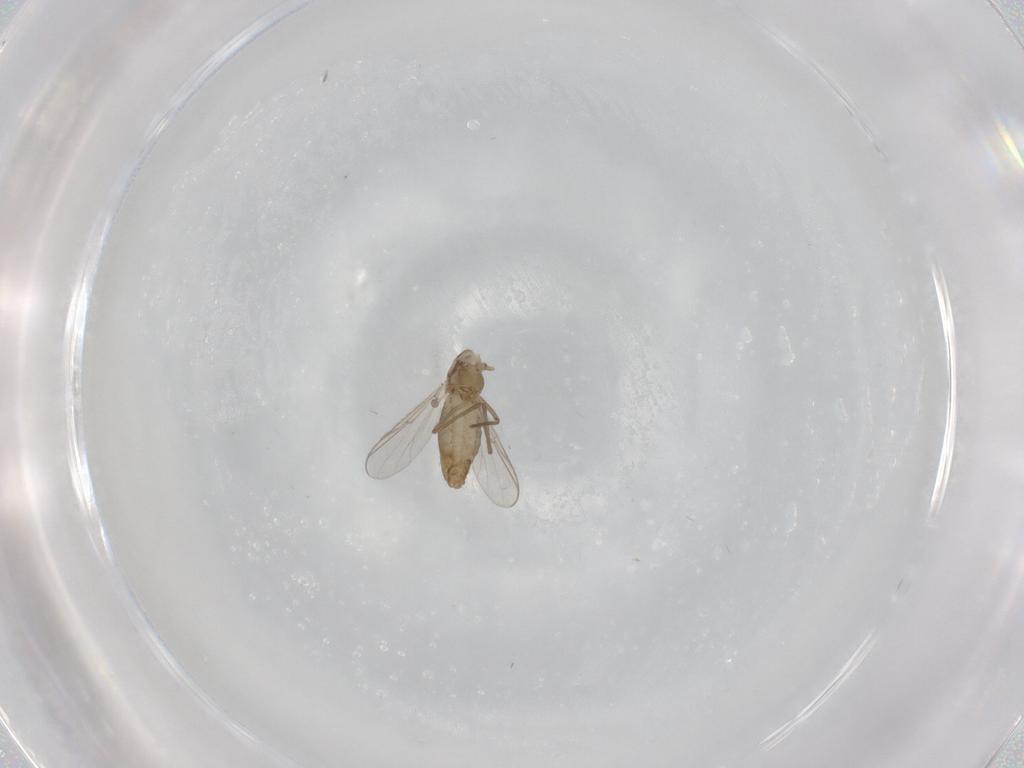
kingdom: Animalia
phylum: Arthropoda
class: Insecta
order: Diptera
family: Chironomidae
